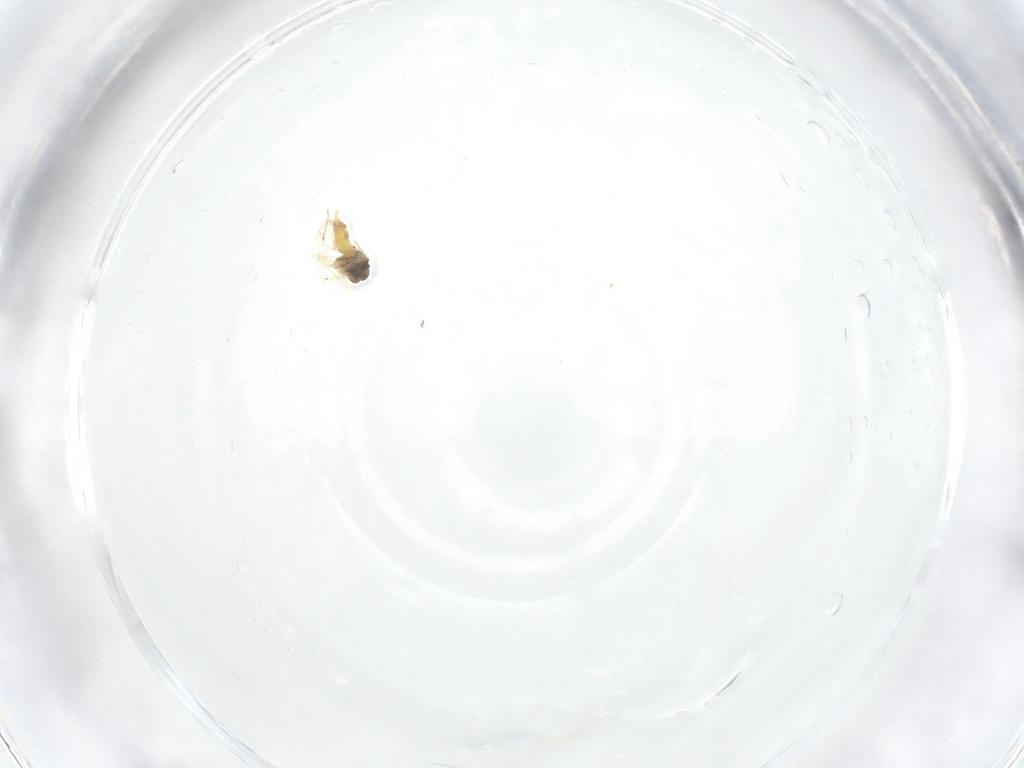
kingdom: Animalia
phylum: Arthropoda
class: Insecta
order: Hemiptera
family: Aleyrodidae
